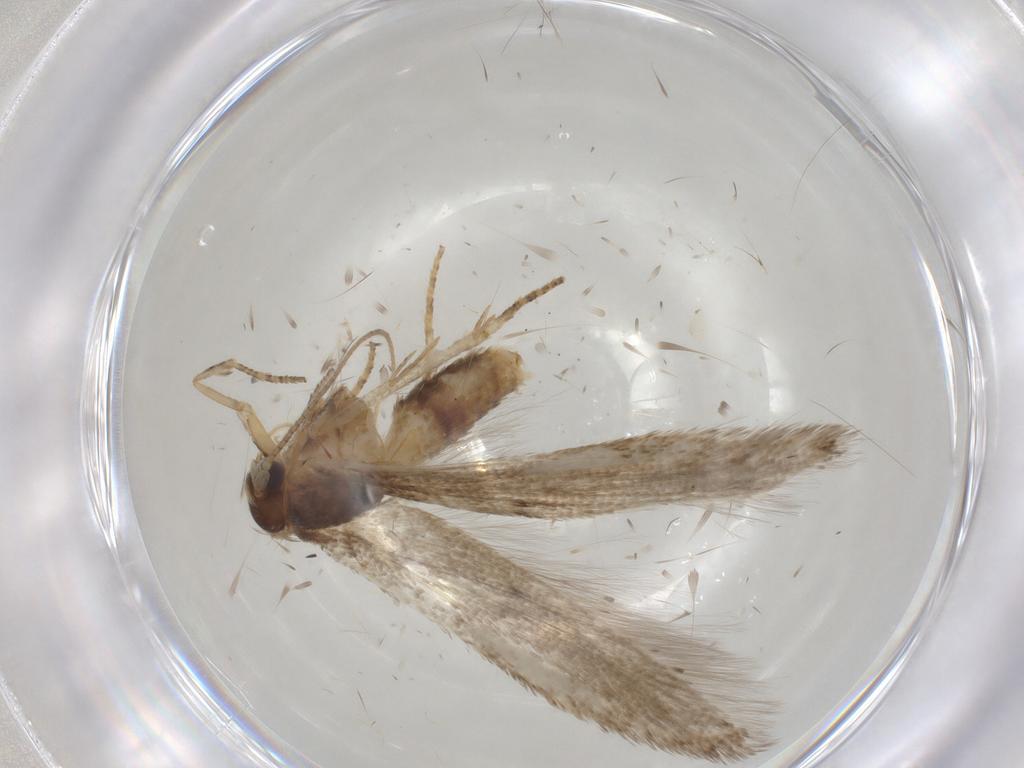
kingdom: Animalia
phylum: Arthropoda
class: Insecta
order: Lepidoptera
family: Blastobasidae
